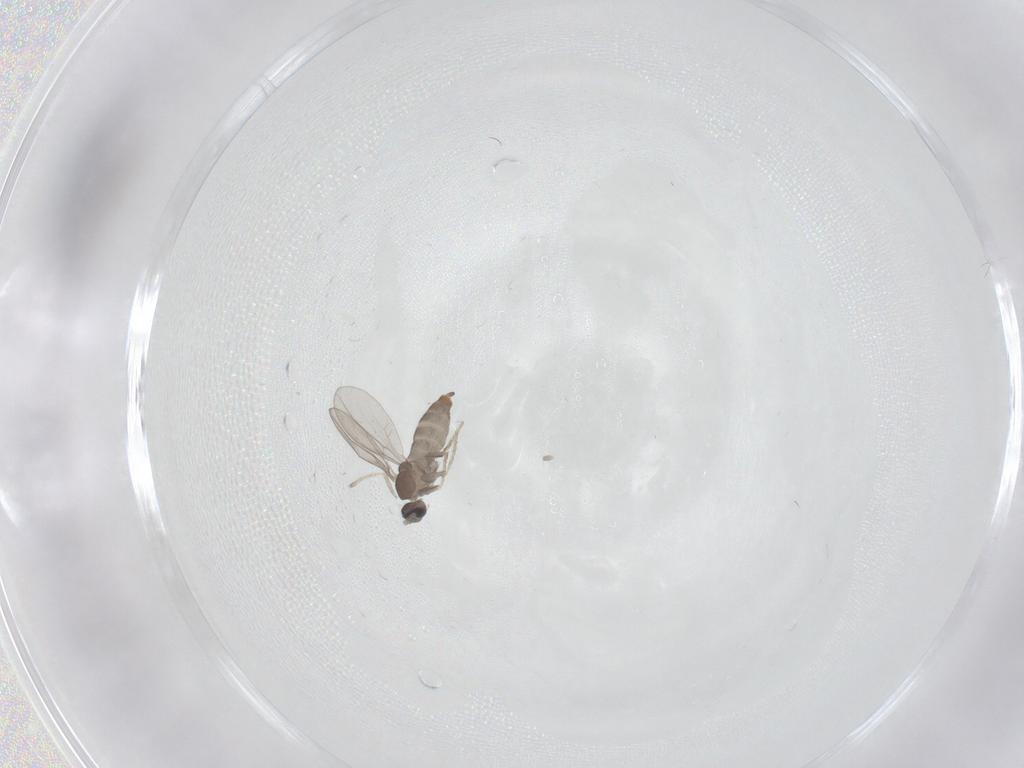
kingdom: Animalia
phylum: Arthropoda
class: Insecta
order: Diptera
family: Cecidomyiidae
